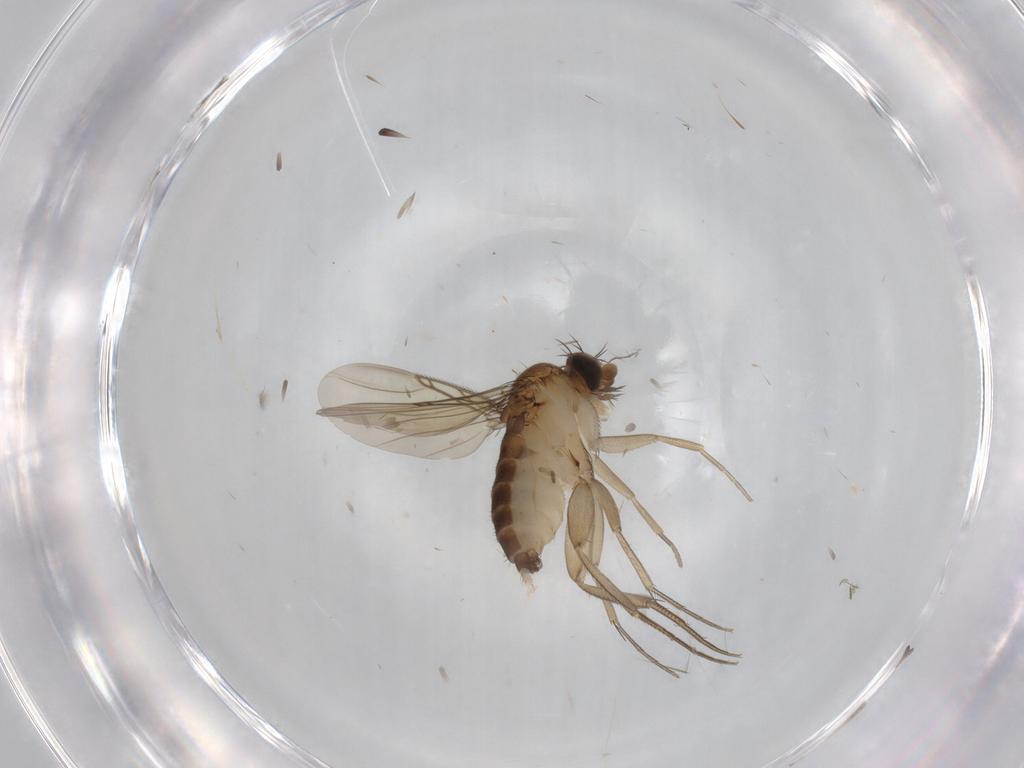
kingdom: Animalia
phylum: Arthropoda
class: Insecta
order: Diptera
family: Cecidomyiidae
